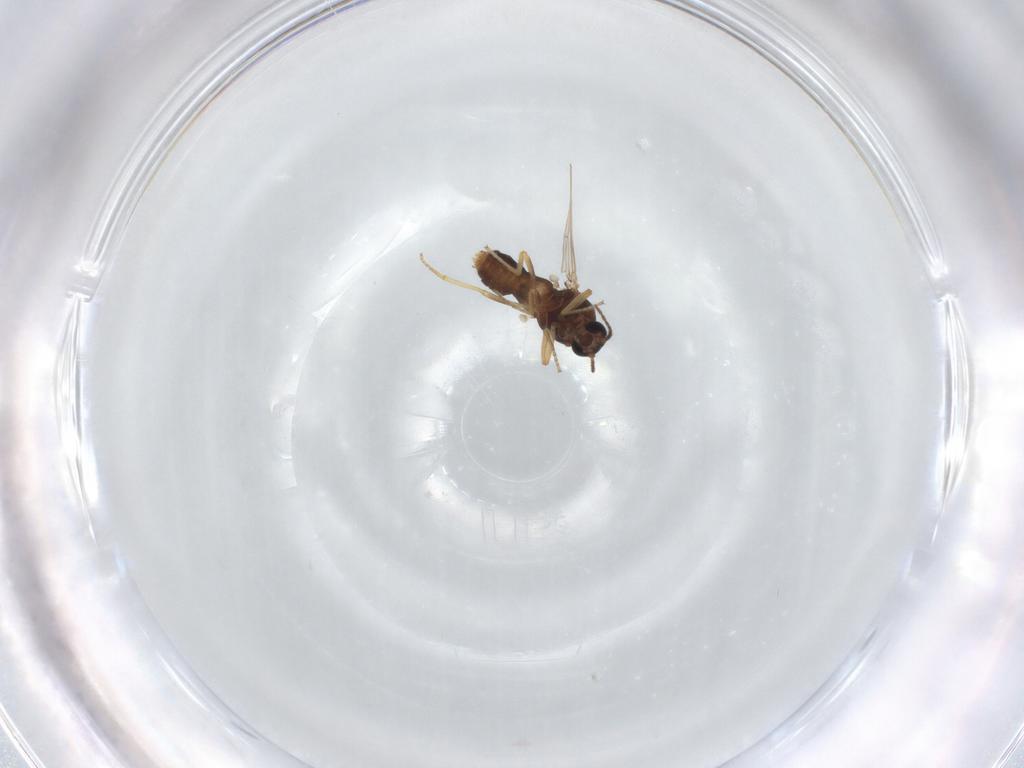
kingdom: Animalia
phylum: Arthropoda
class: Insecta
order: Diptera
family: Ceratopogonidae
